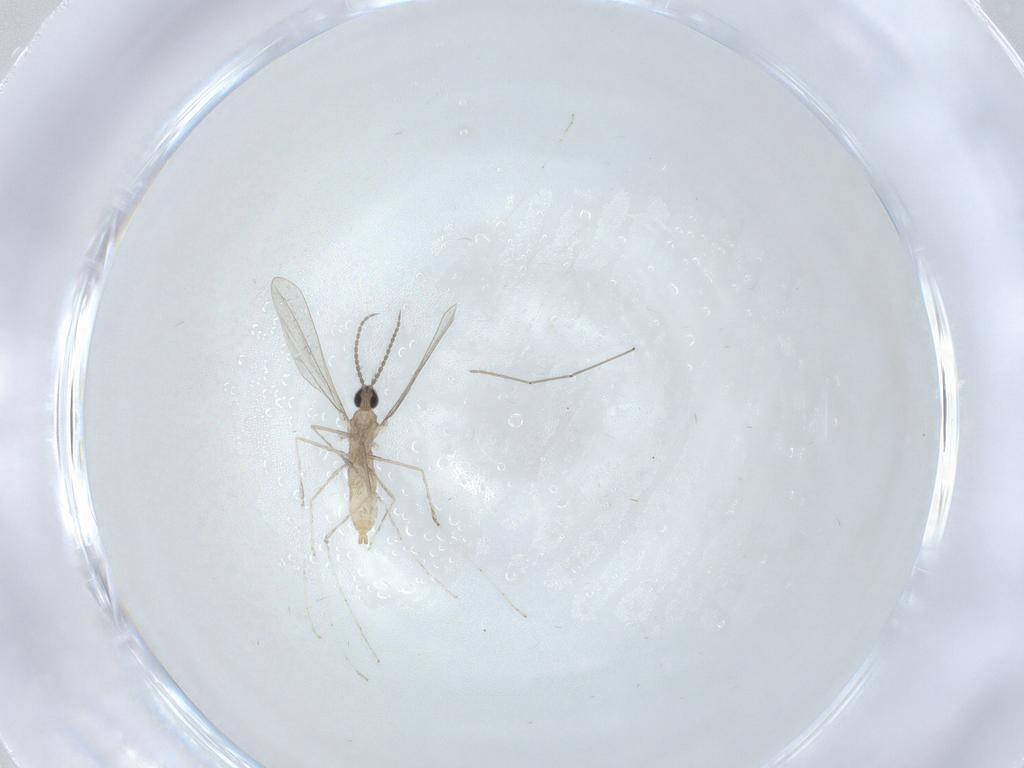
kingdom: Animalia
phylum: Arthropoda
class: Insecta
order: Diptera
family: Cecidomyiidae
